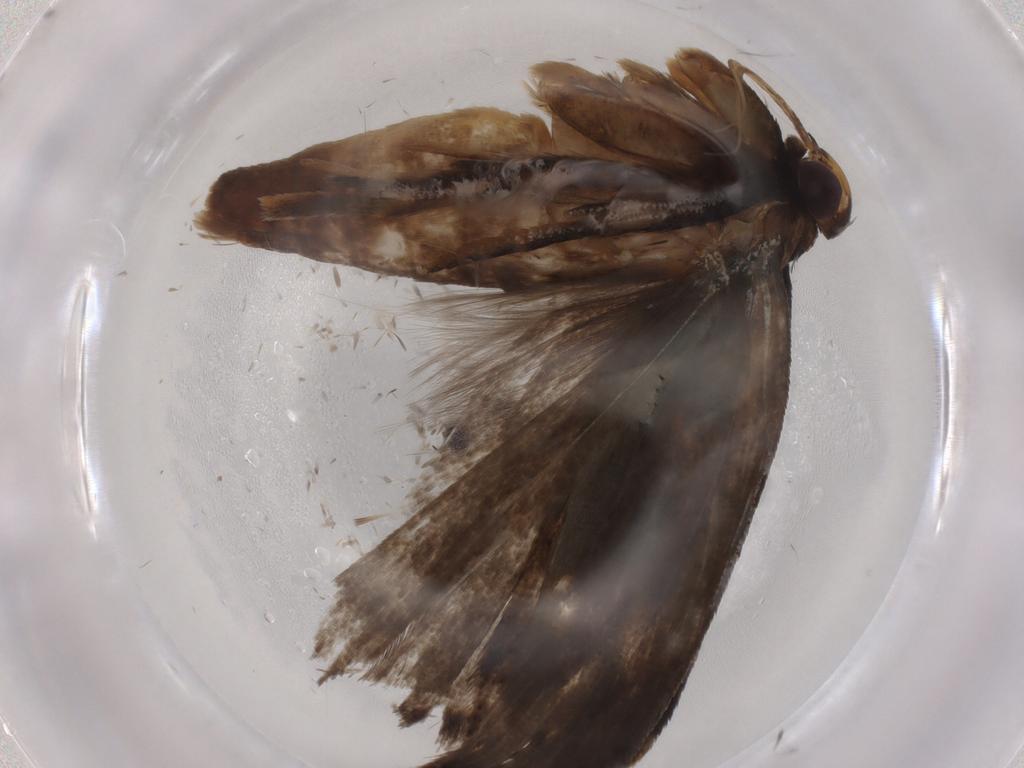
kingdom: Animalia
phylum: Arthropoda
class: Insecta
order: Lepidoptera
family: Gelechiidae
